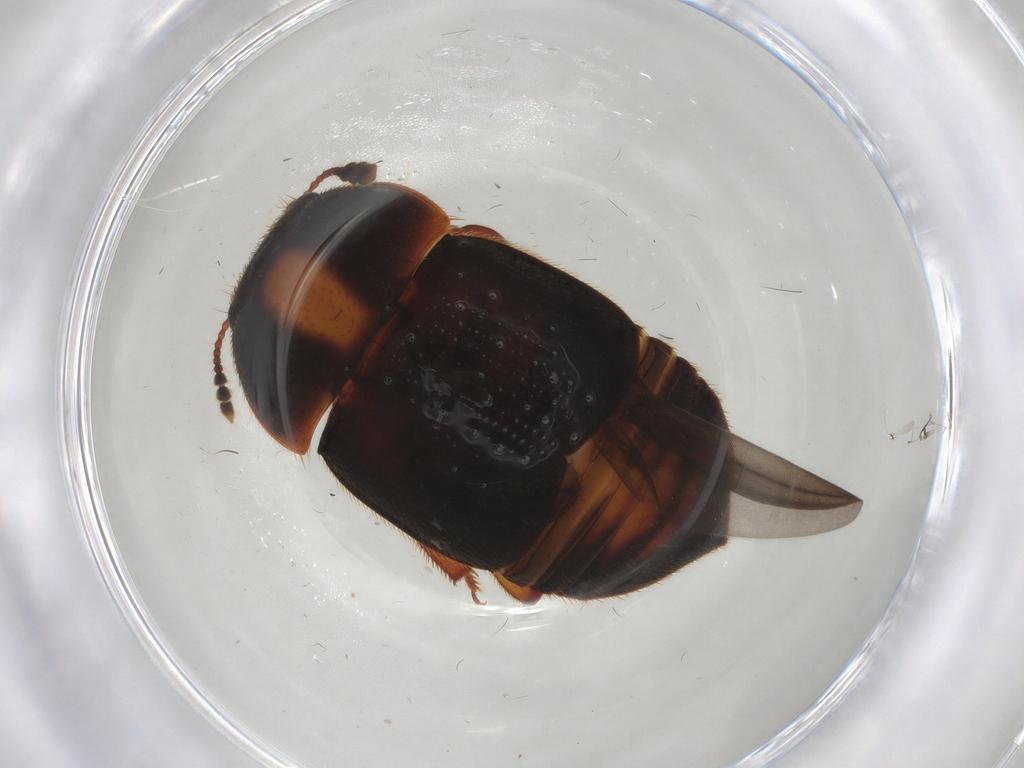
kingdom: Animalia
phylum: Arthropoda
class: Insecta
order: Coleoptera
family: Nitidulidae
